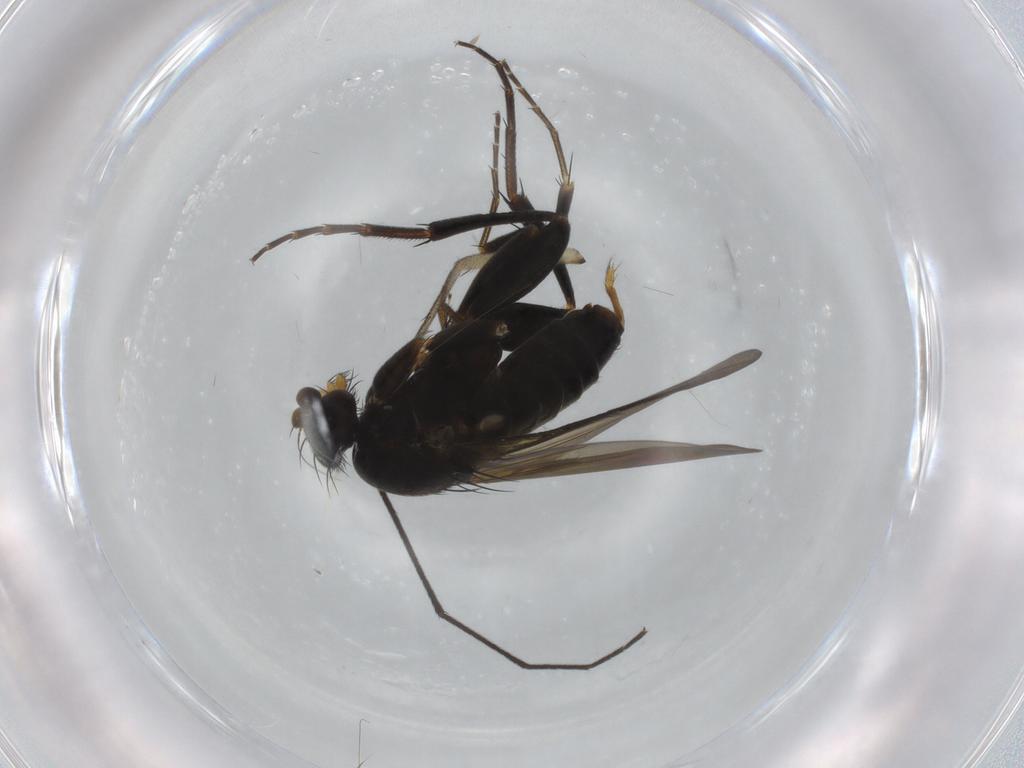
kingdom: Animalia
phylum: Arthropoda
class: Insecta
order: Diptera
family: Phoridae
